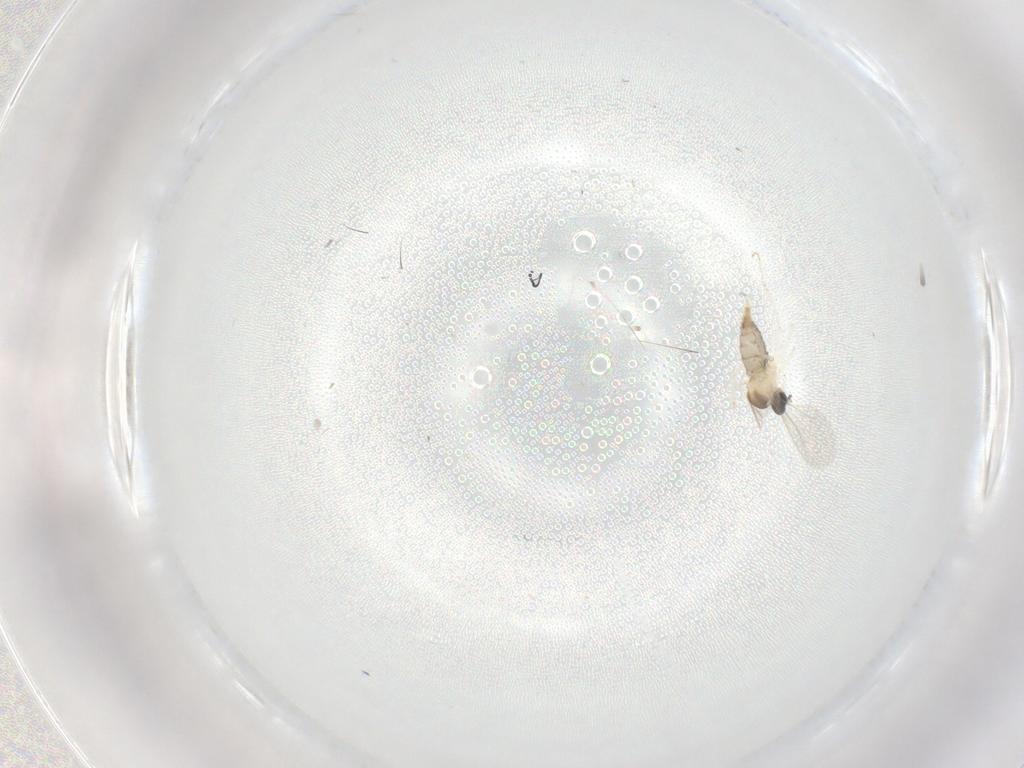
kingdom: Animalia
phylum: Arthropoda
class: Insecta
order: Diptera
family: Cecidomyiidae
